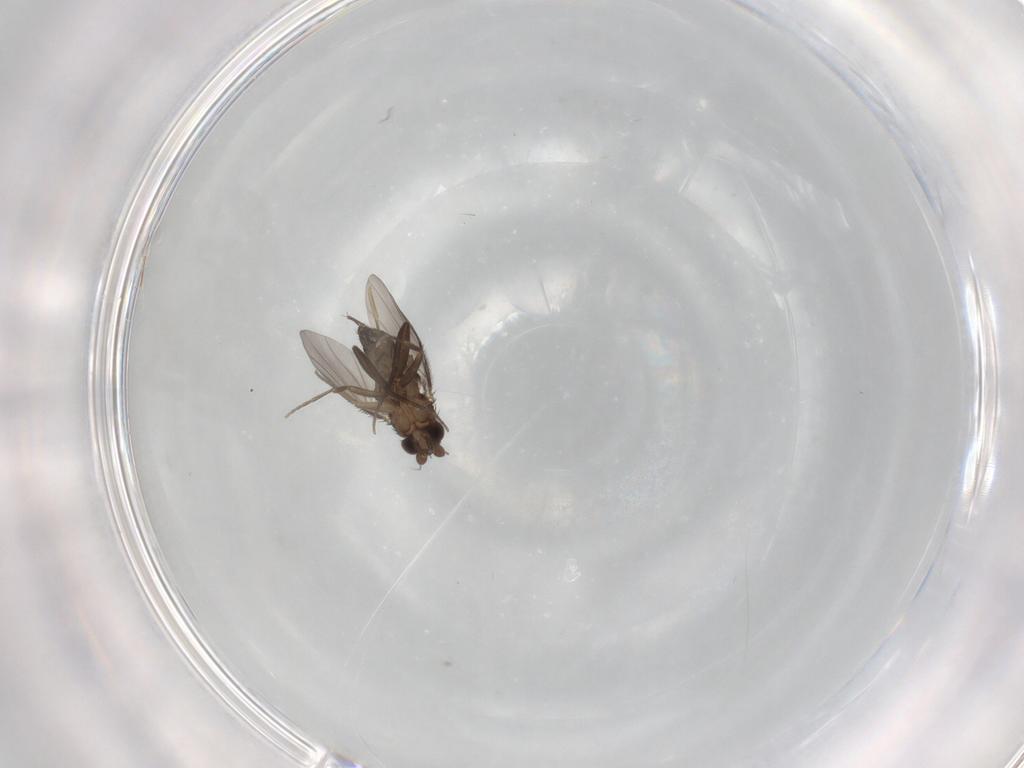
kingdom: Animalia
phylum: Arthropoda
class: Insecta
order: Diptera
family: Phoridae
